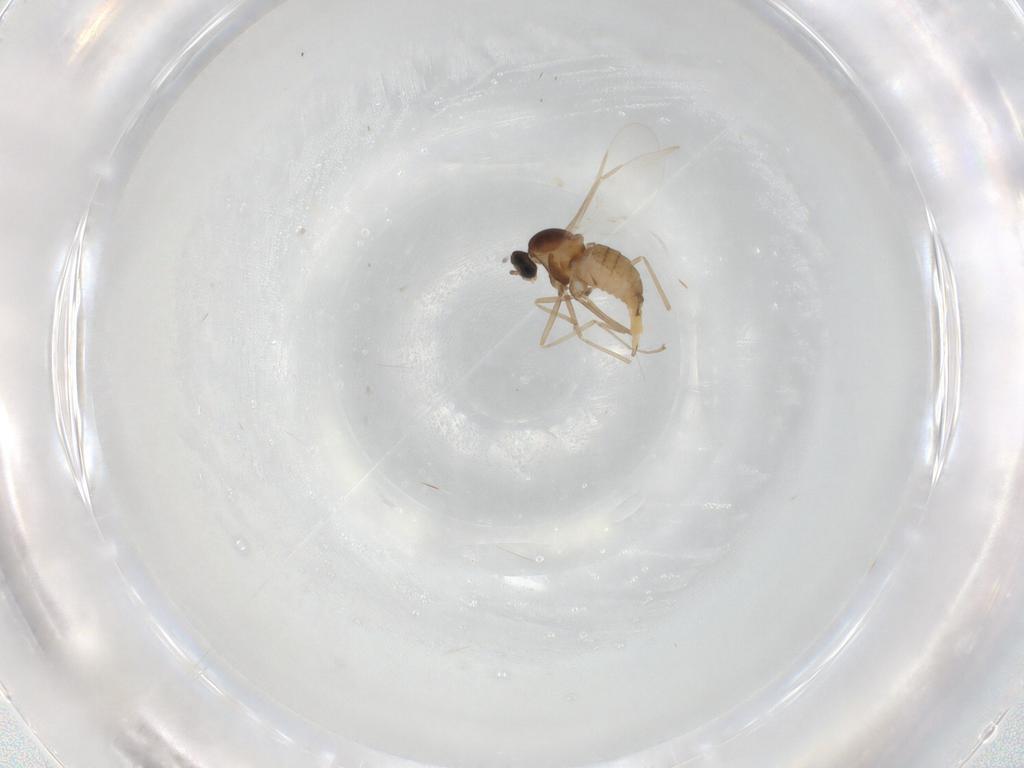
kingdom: Animalia
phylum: Arthropoda
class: Insecta
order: Diptera
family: Cecidomyiidae
